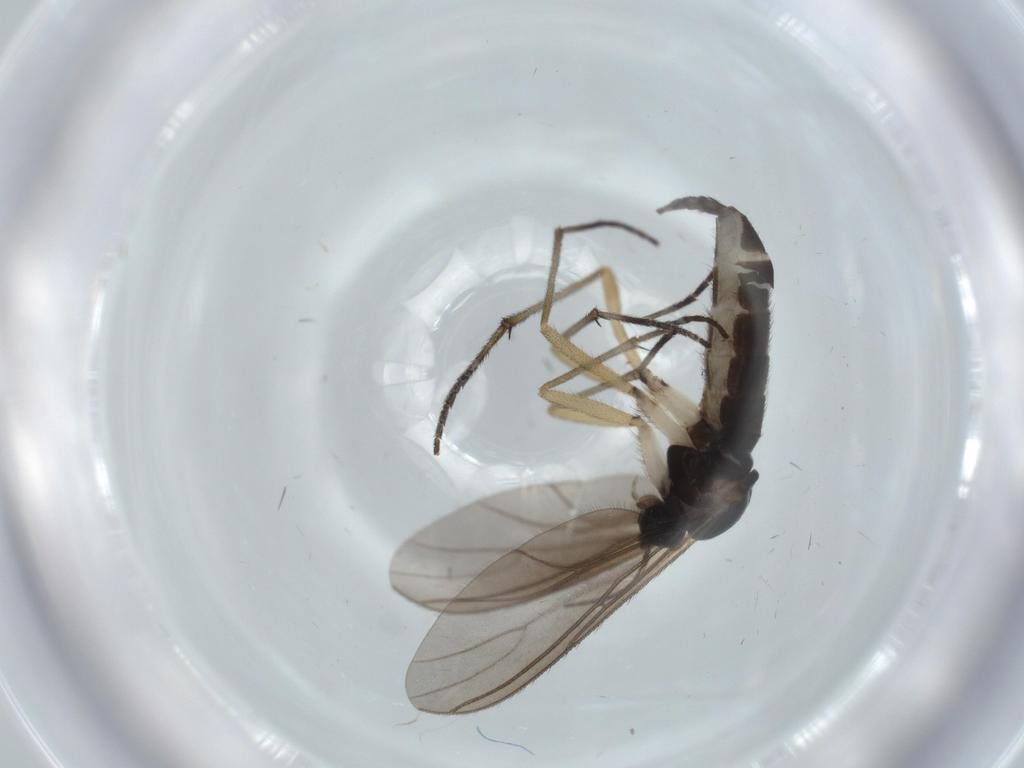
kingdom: Animalia
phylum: Arthropoda
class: Insecta
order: Diptera
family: Sciaridae
